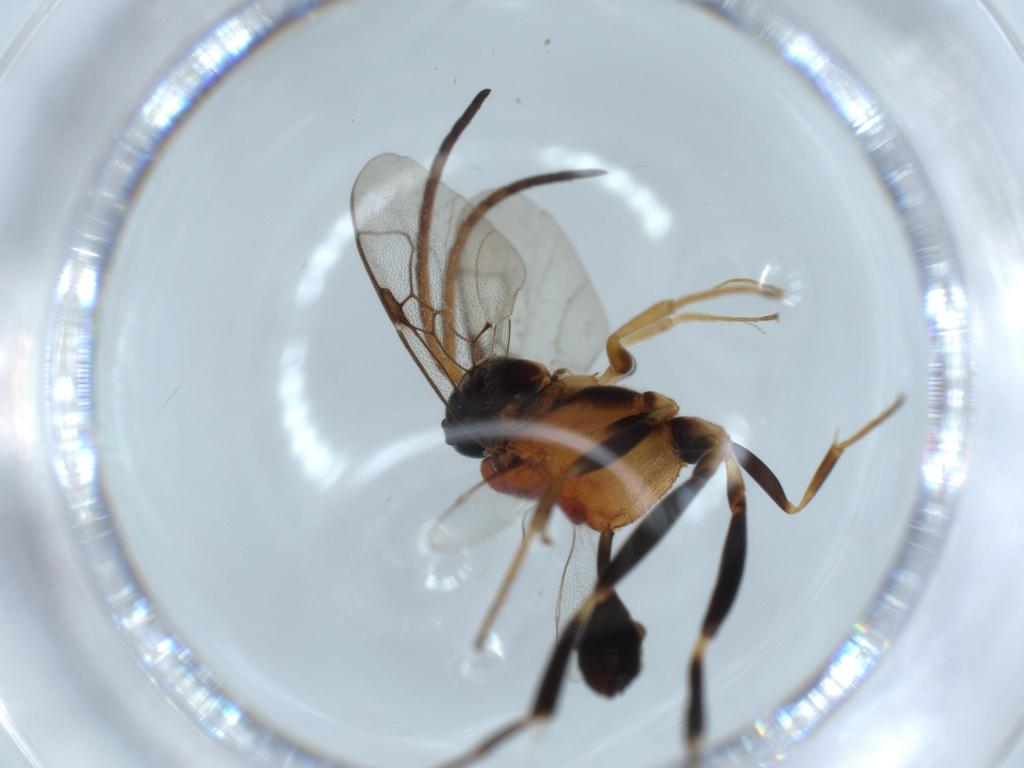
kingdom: Animalia
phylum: Arthropoda
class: Insecta
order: Hymenoptera
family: Evaniidae
